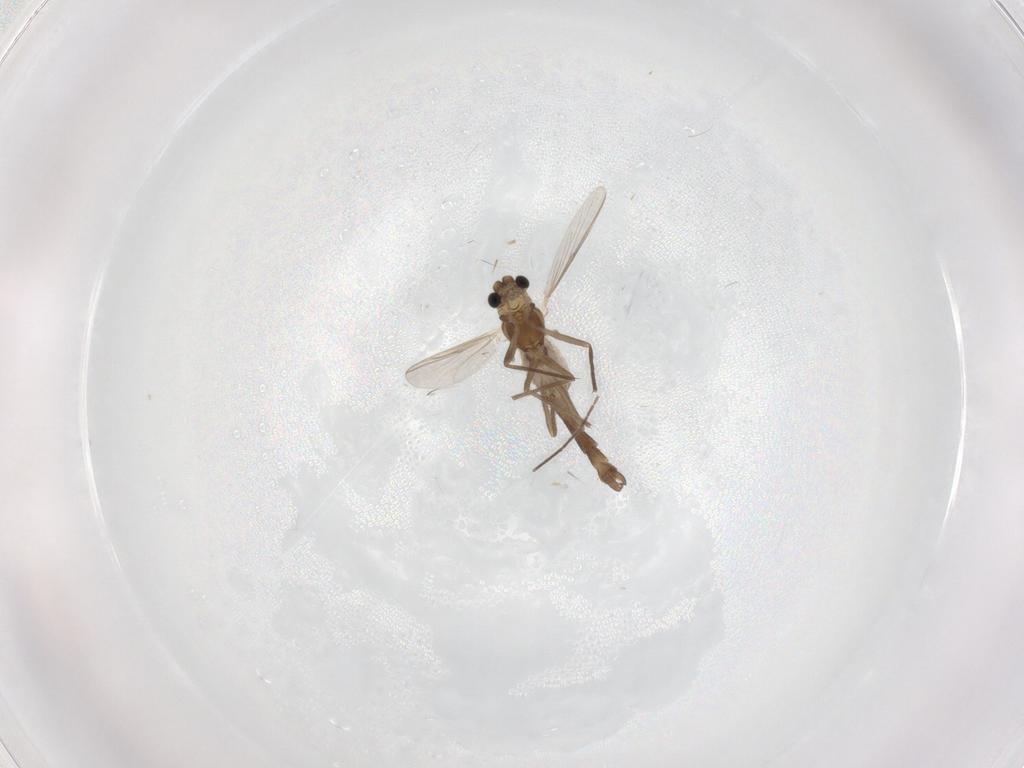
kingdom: Animalia
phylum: Arthropoda
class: Insecta
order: Diptera
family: Chironomidae
